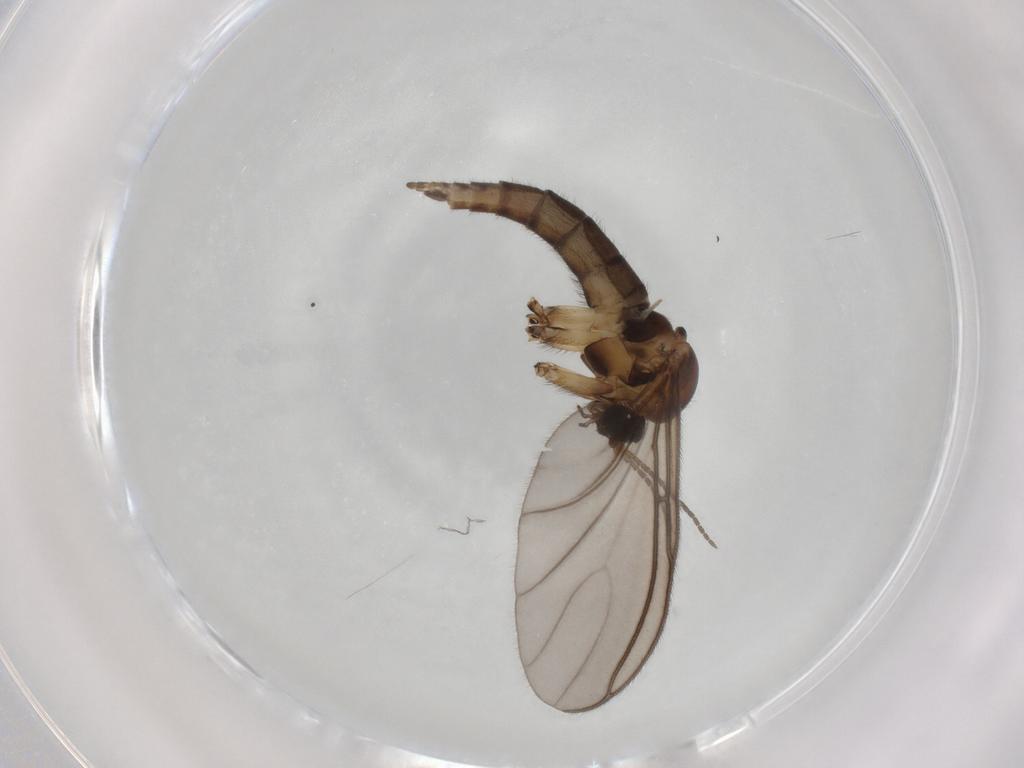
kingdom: Animalia
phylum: Arthropoda
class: Insecta
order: Diptera
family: Sciaridae
